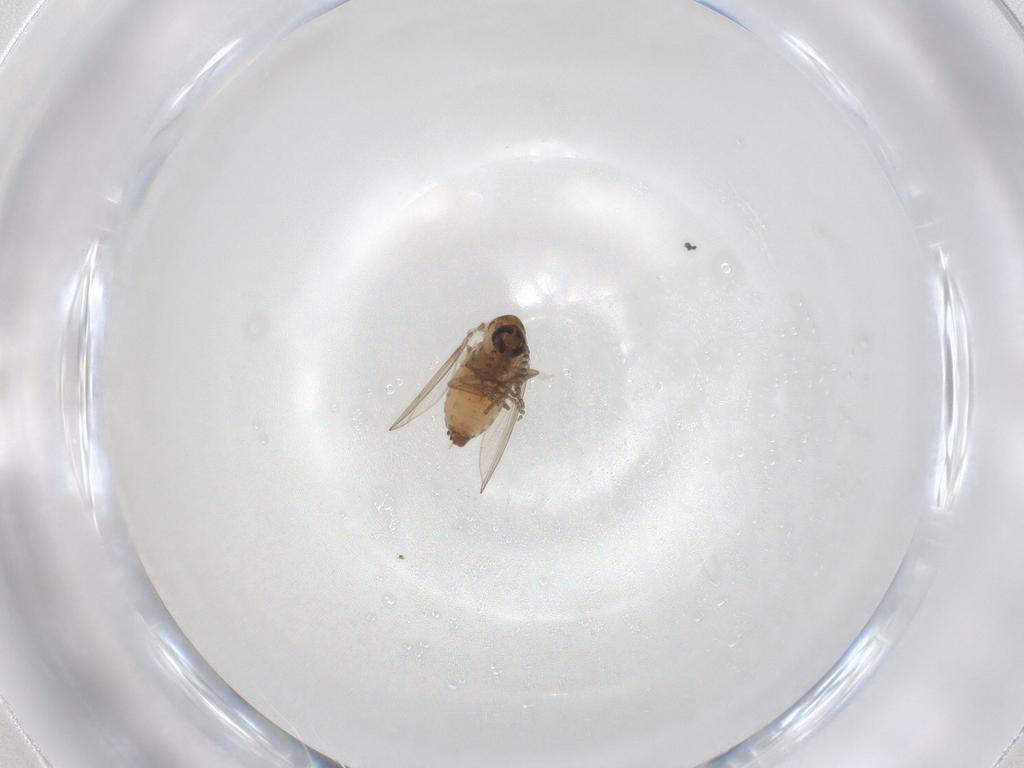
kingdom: Animalia
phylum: Arthropoda
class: Insecta
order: Diptera
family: Psychodidae
